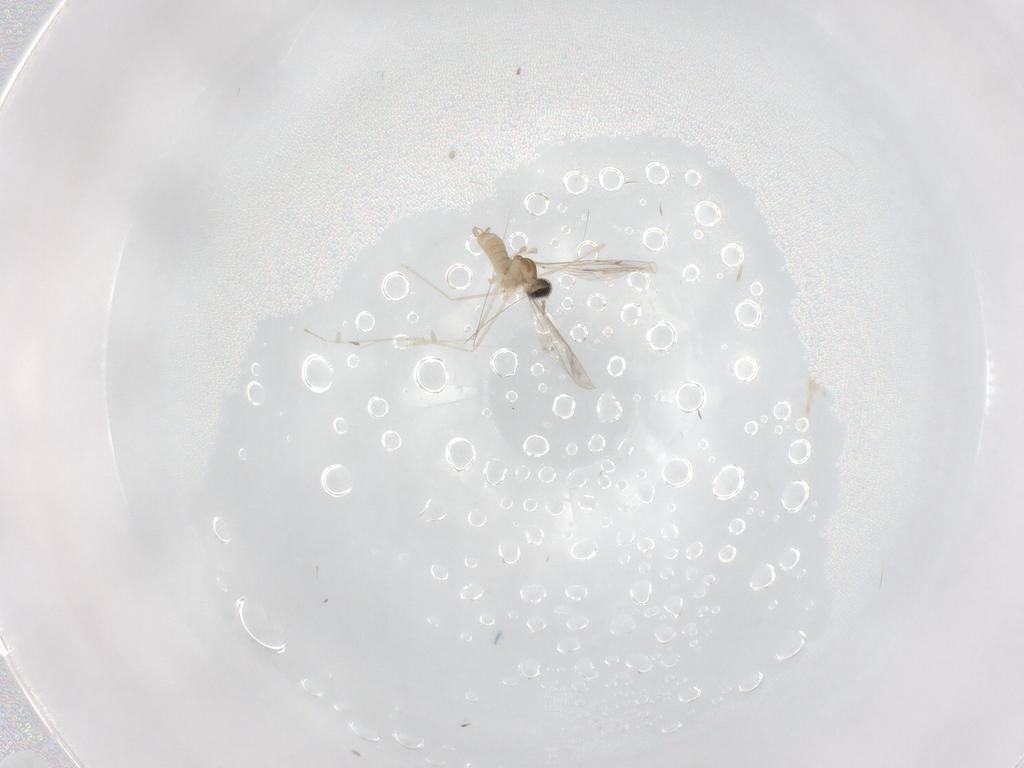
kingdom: Animalia
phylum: Arthropoda
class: Insecta
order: Diptera
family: Cecidomyiidae
